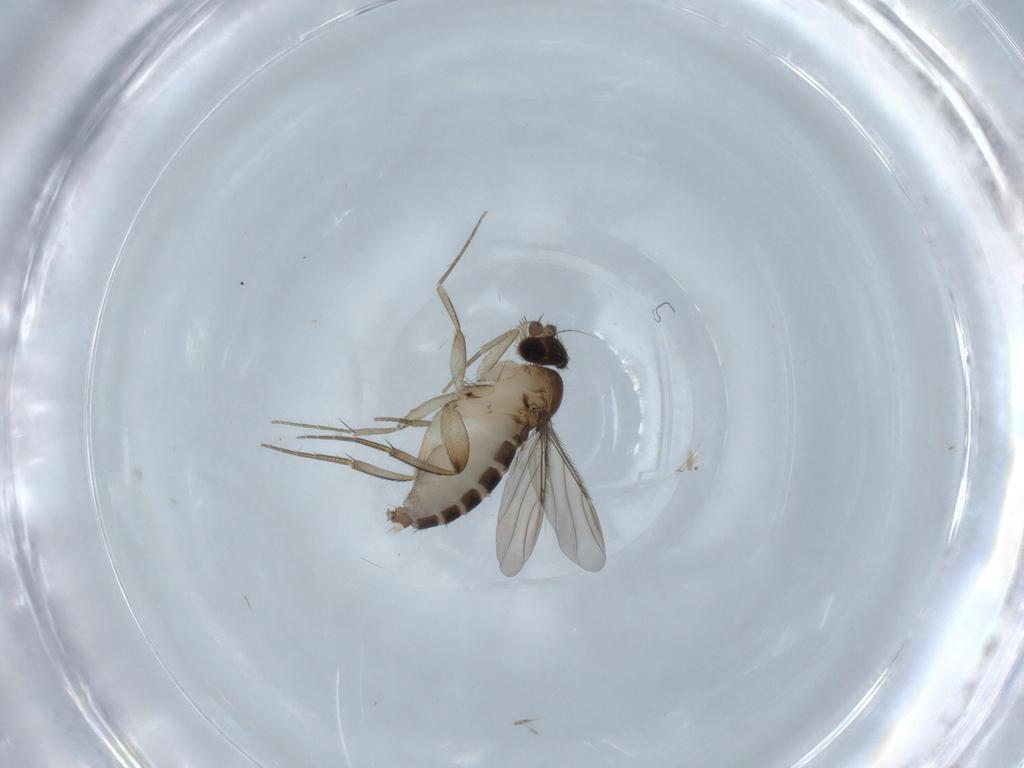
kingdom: Animalia
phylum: Arthropoda
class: Insecta
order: Diptera
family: Phoridae
